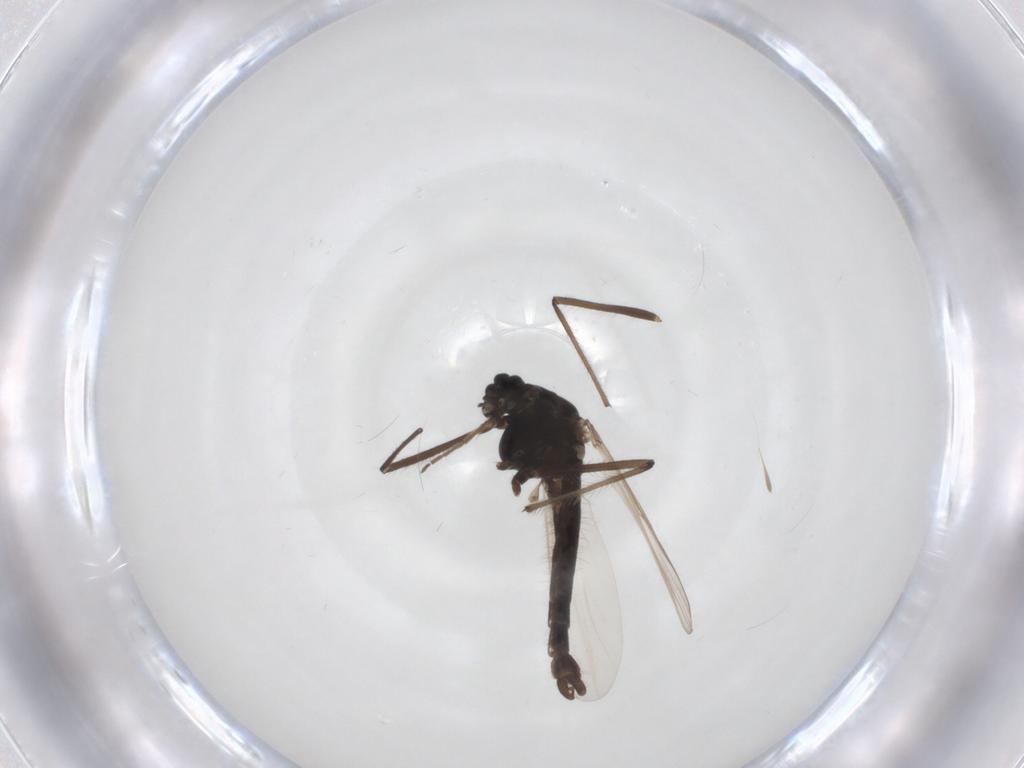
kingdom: Animalia
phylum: Arthropoda
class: Insecta
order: Diptera
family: Chironomidae
